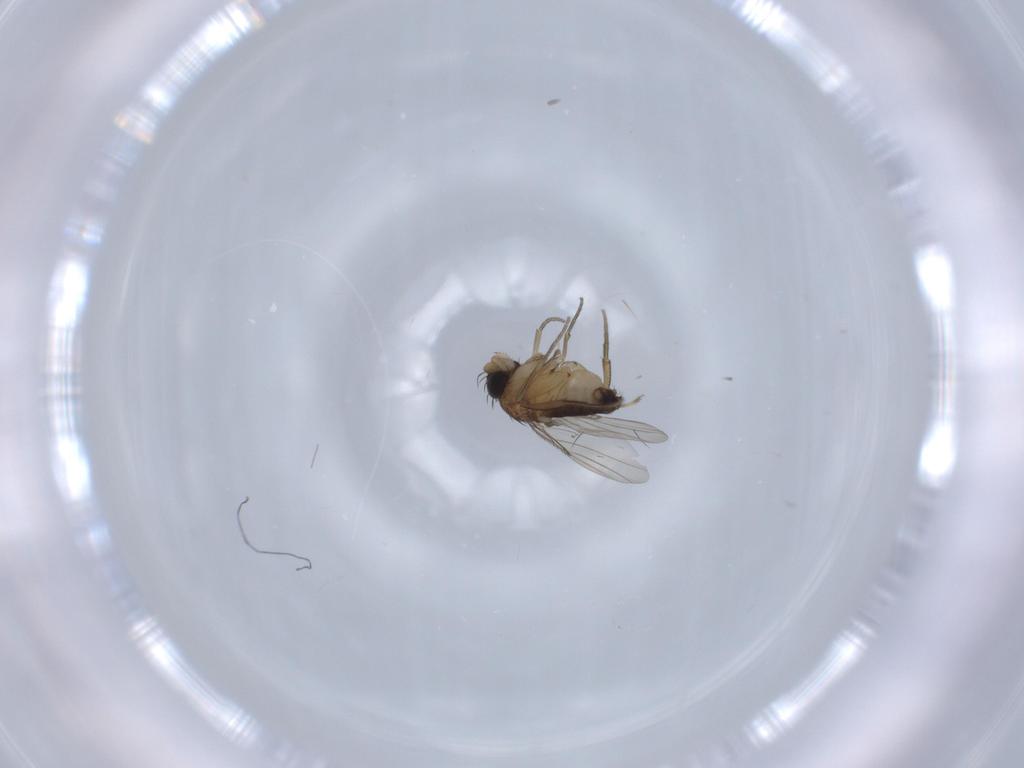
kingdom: Animalia
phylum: Arthropoda
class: Insecta
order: Diptera
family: Phoridae
